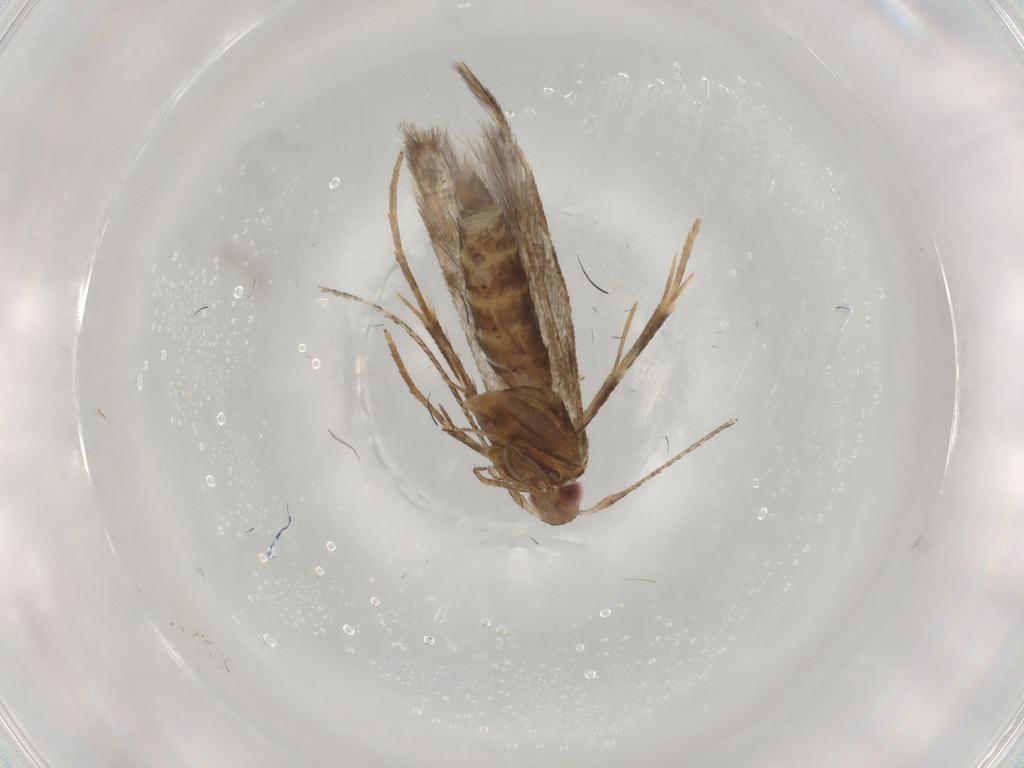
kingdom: Animalia
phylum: Arthropoda
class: Insecta
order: Lepidoptera
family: Cosmopterigidae
